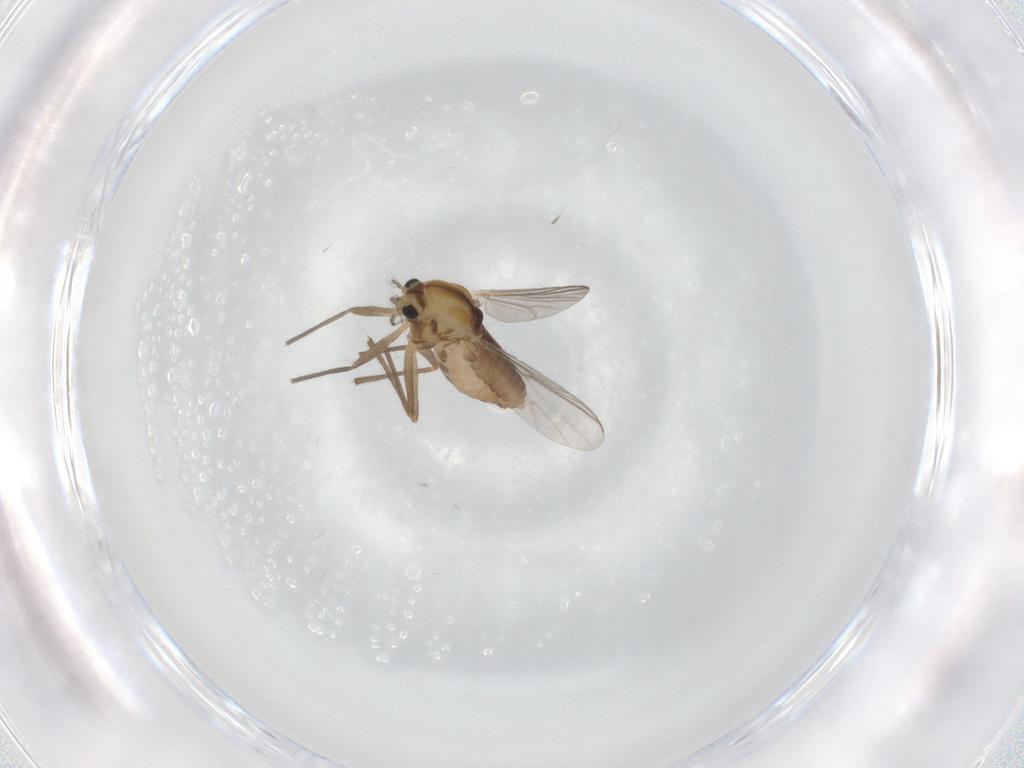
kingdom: Animalia
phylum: Arthropoda
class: Insecta
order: Diptera
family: Chironomidae
